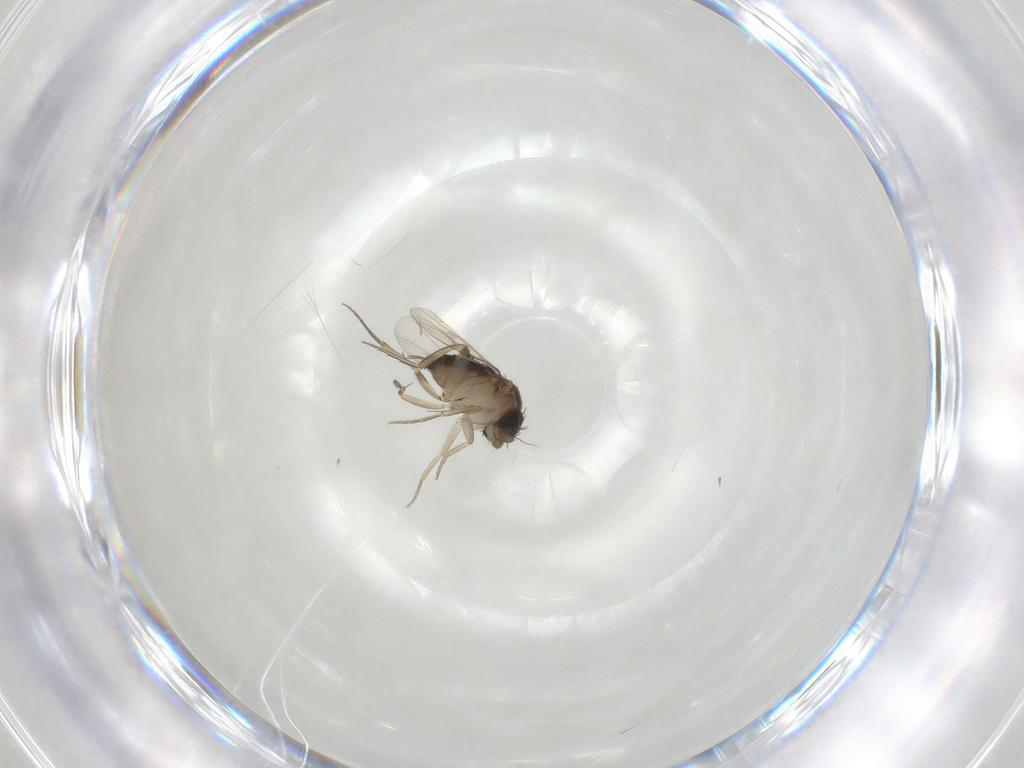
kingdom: Animalia
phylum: Arthropoda
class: Insecta
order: Diptera
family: Phoridae
